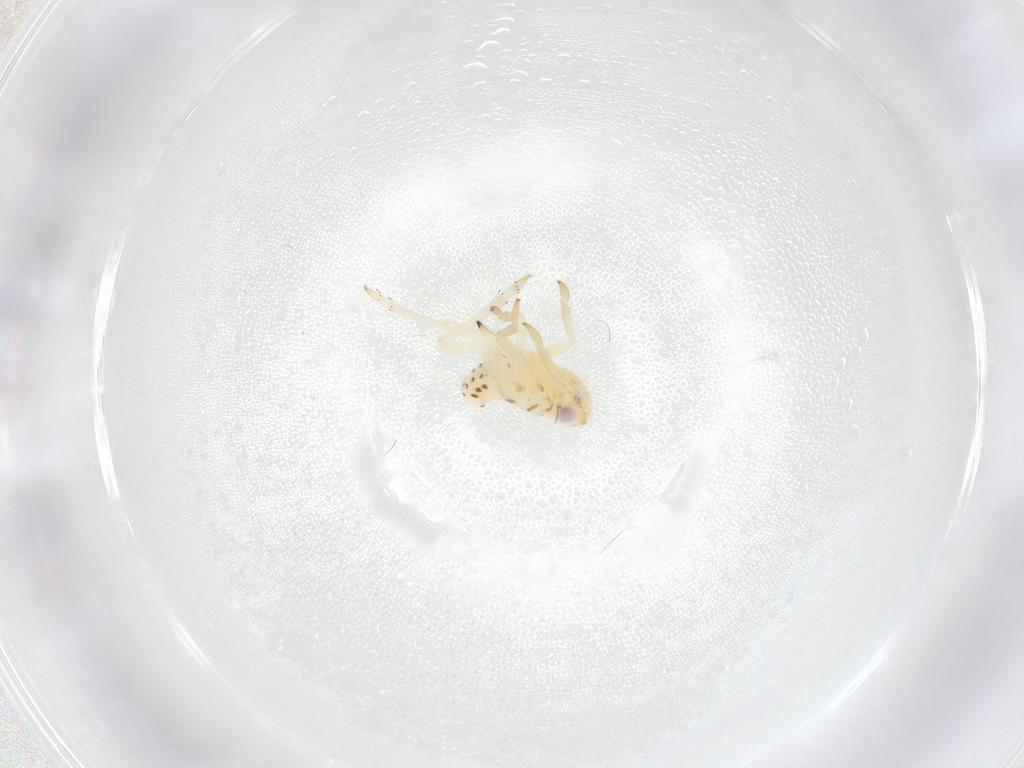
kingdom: Animalia
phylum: Arthropoda
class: Insecta
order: Hemiptera
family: Tropiduchidae
